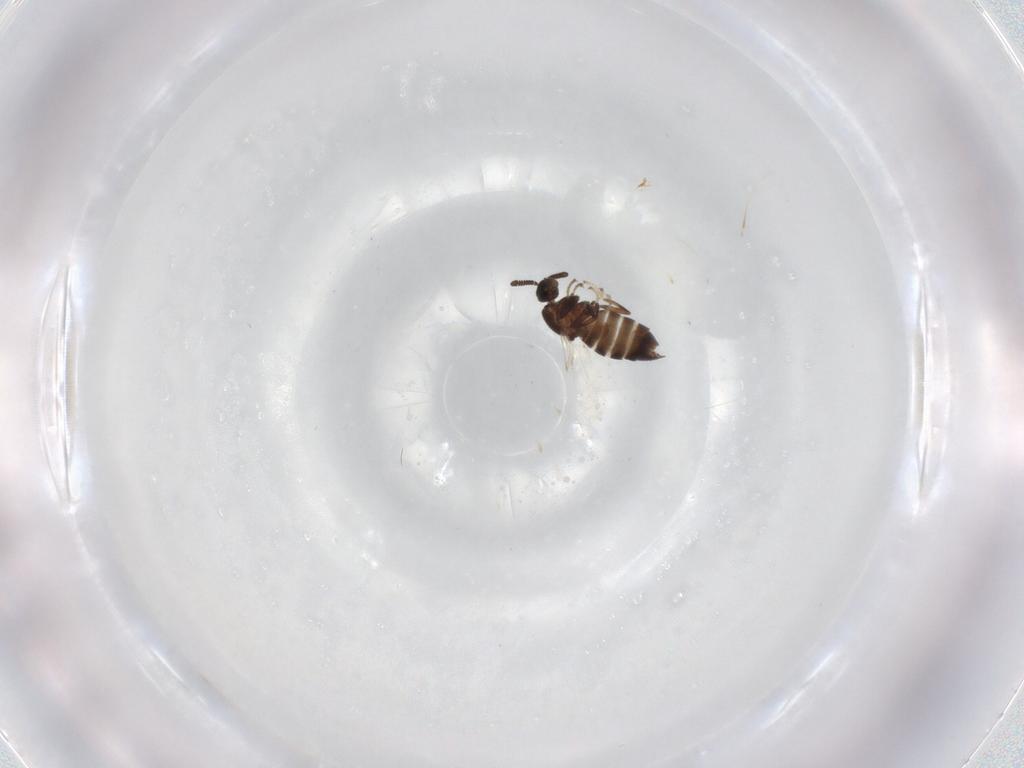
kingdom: Animalia
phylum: Arthropoda
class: Insecta
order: Diptera
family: Scatopsidae
